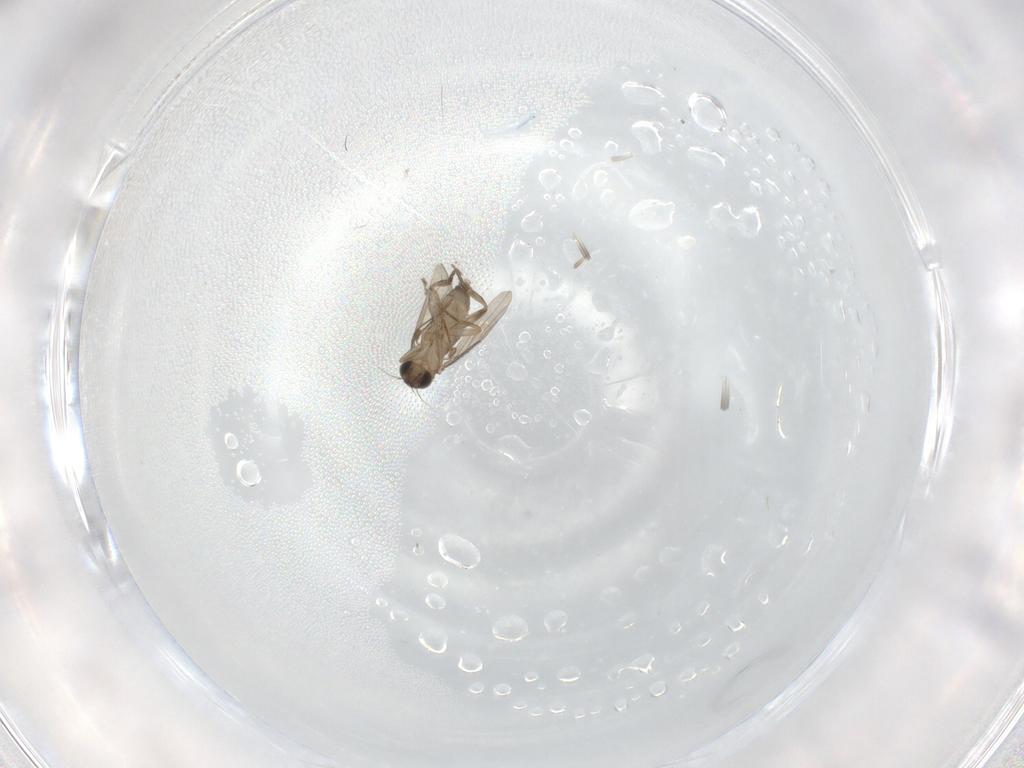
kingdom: Animalia
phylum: Arthropoda
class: Insecta
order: Diptera
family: Phoridae
